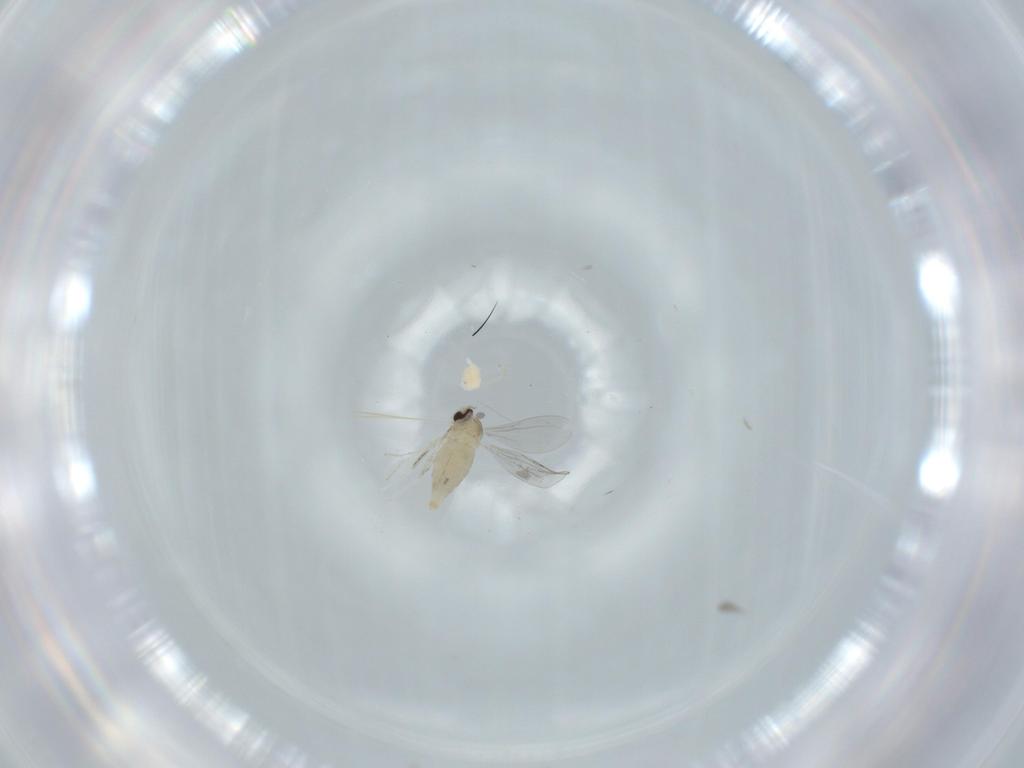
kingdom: Animalia
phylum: Arthropoda
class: Insecta
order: Diptera
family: Cecidomyiidae
